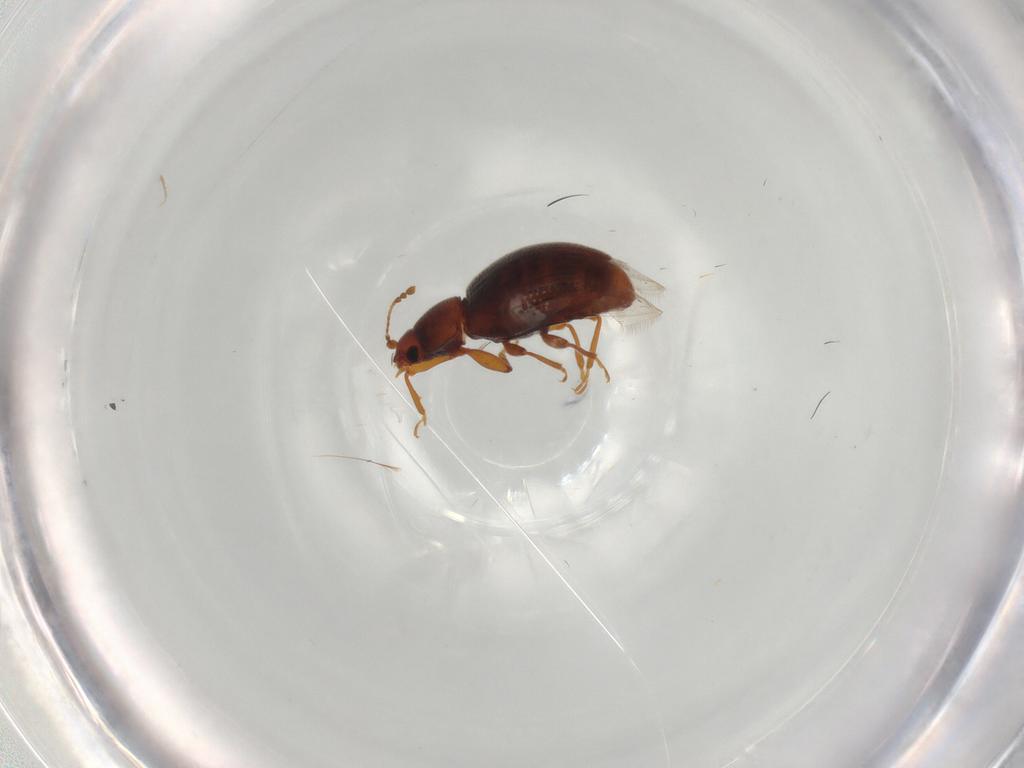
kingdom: Animalia
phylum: Arthropoda
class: Insecta
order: Coleoptera
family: Latridiidae
